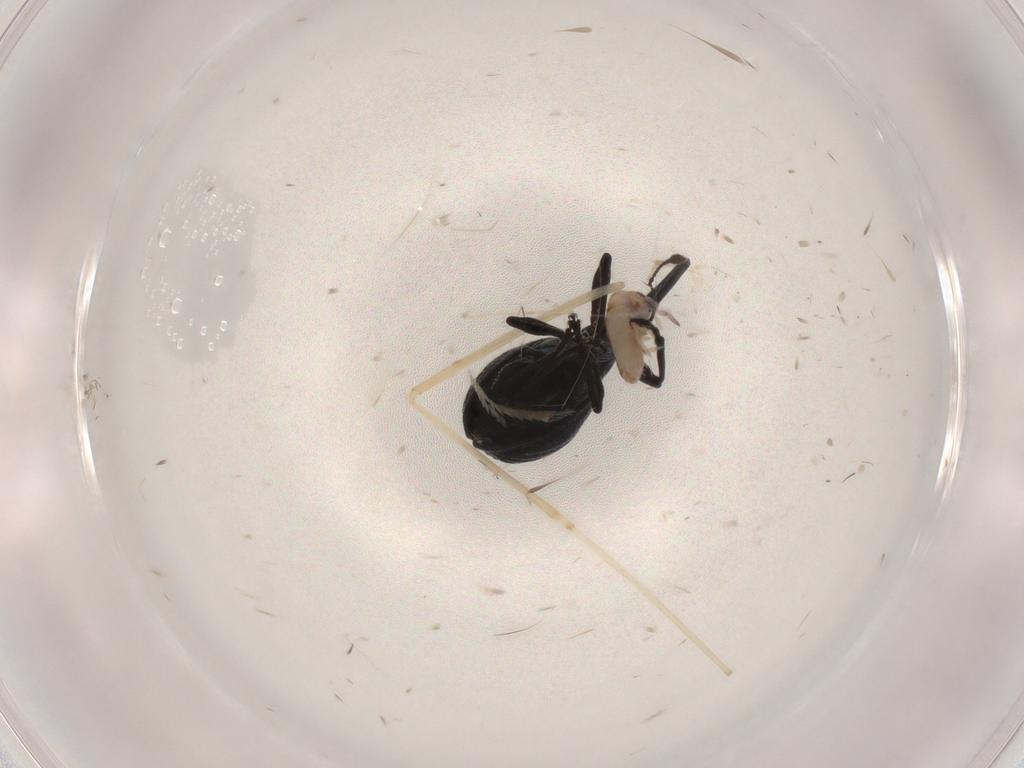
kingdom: Animalia
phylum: Arthropoda
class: Insecta
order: Coleoptera
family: Brentidae
